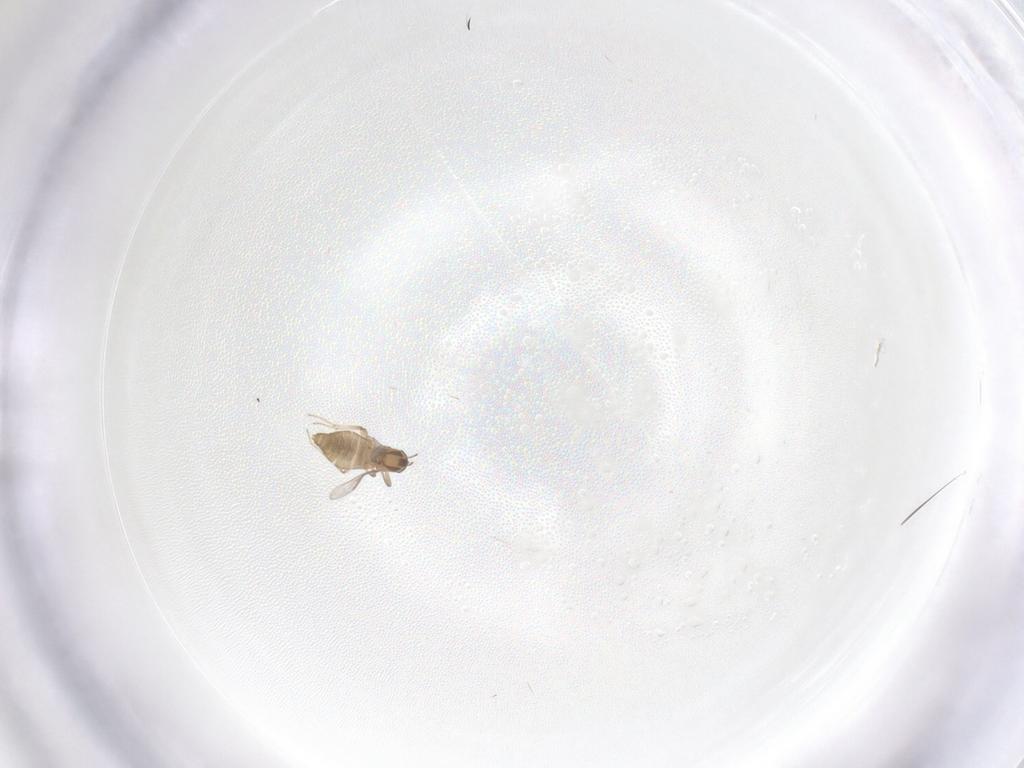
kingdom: Animalia
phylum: Arthropoda
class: Insecta
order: Diptera
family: Chironomidae
